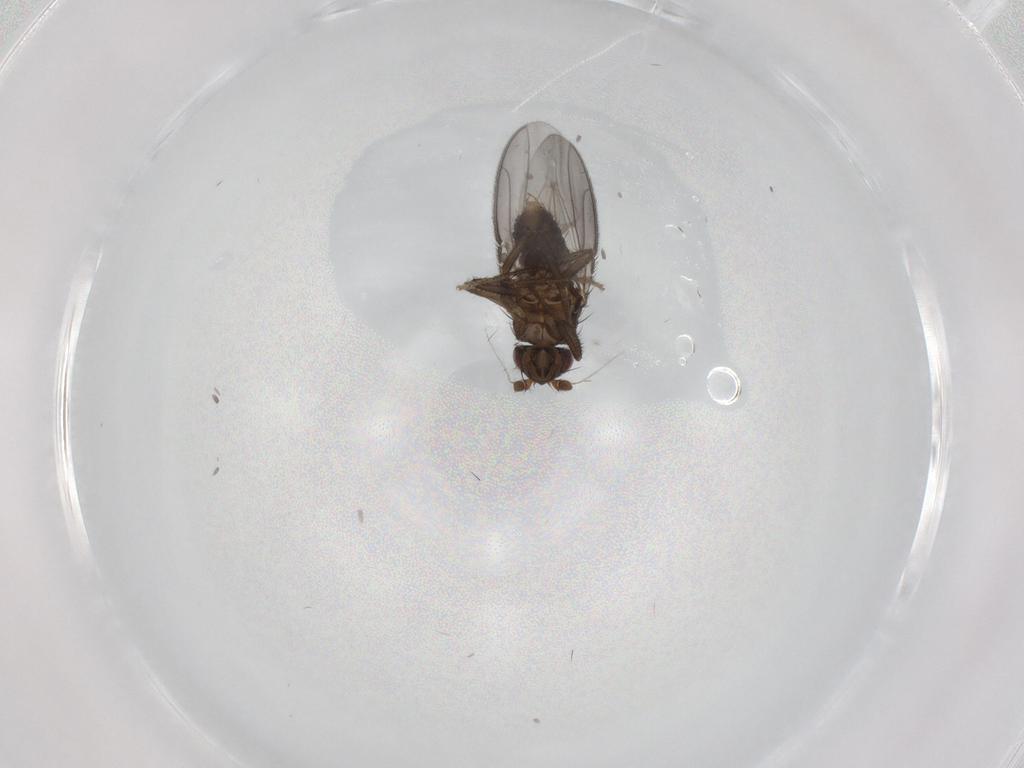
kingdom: Animalia
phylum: Arthropoda
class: Insecta
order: Diptera
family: Sphaeroceridae
